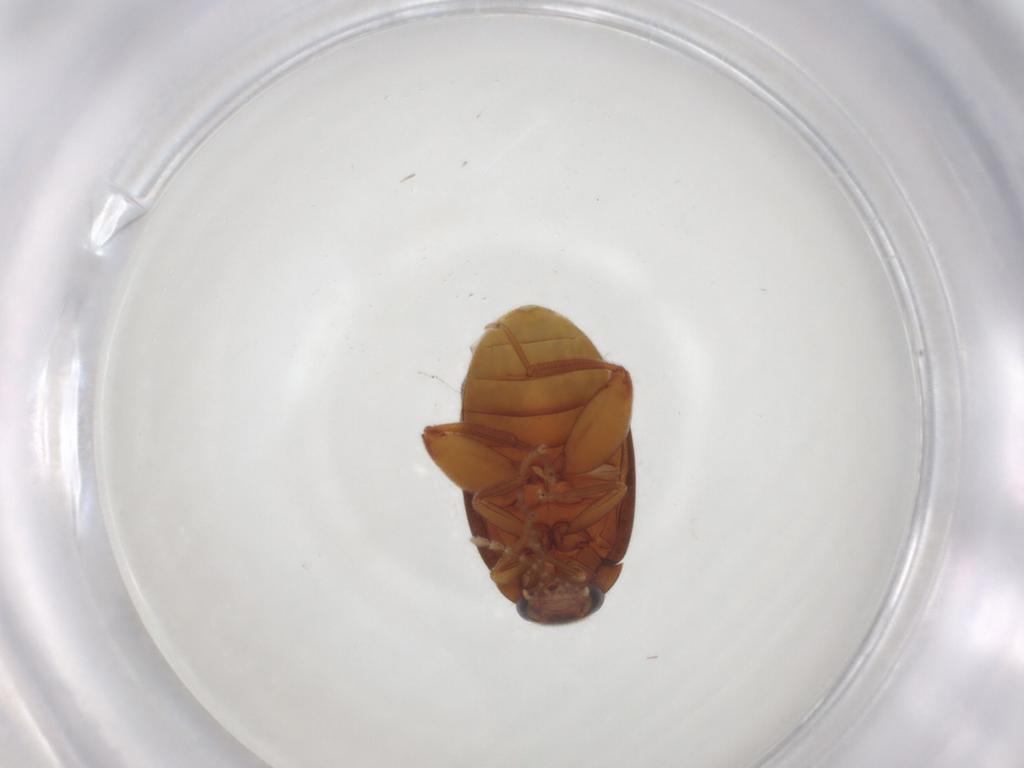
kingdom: Animalia
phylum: Arthropoda
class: Insecta
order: Coleoptera
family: Scirtidae
